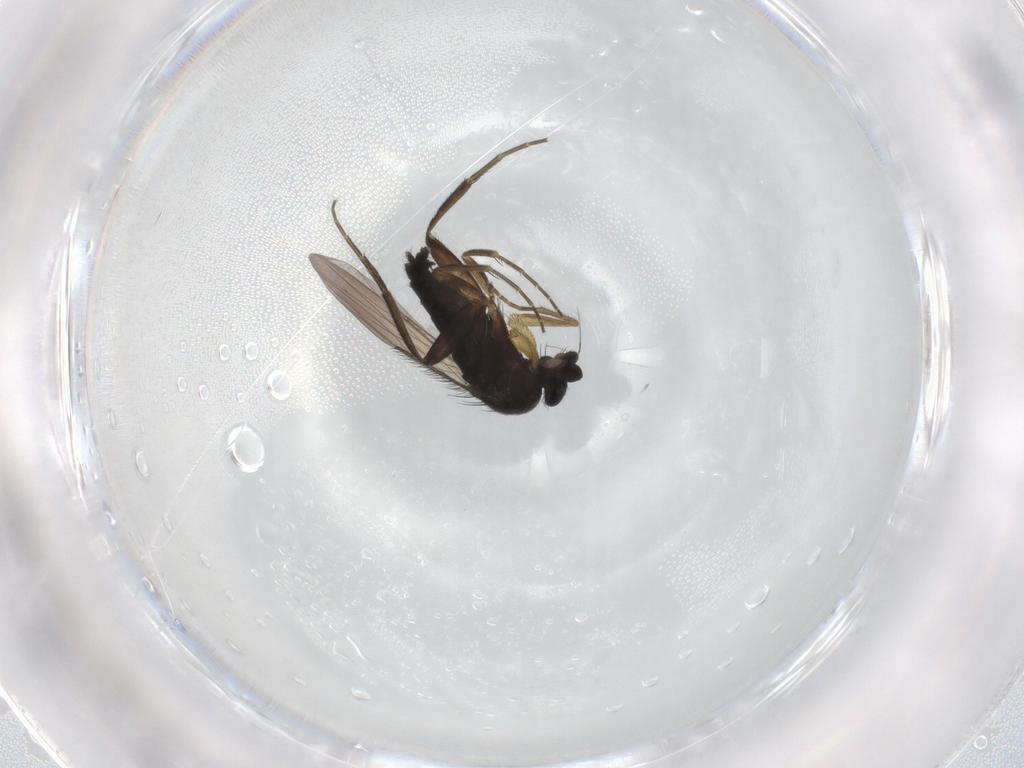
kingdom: Animalia
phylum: Arthropoda
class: Insecta
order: Diptera
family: Phoridae
